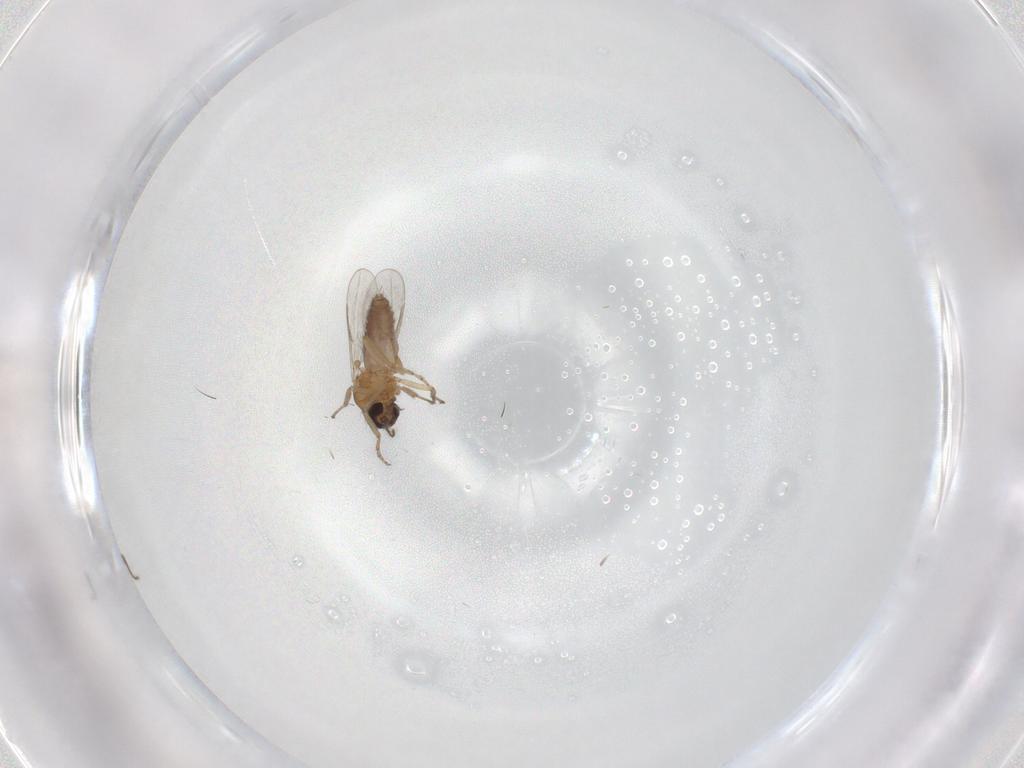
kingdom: Animalia
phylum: Arthropoda
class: Insecta
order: Diptera
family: Ceratopogonidae
